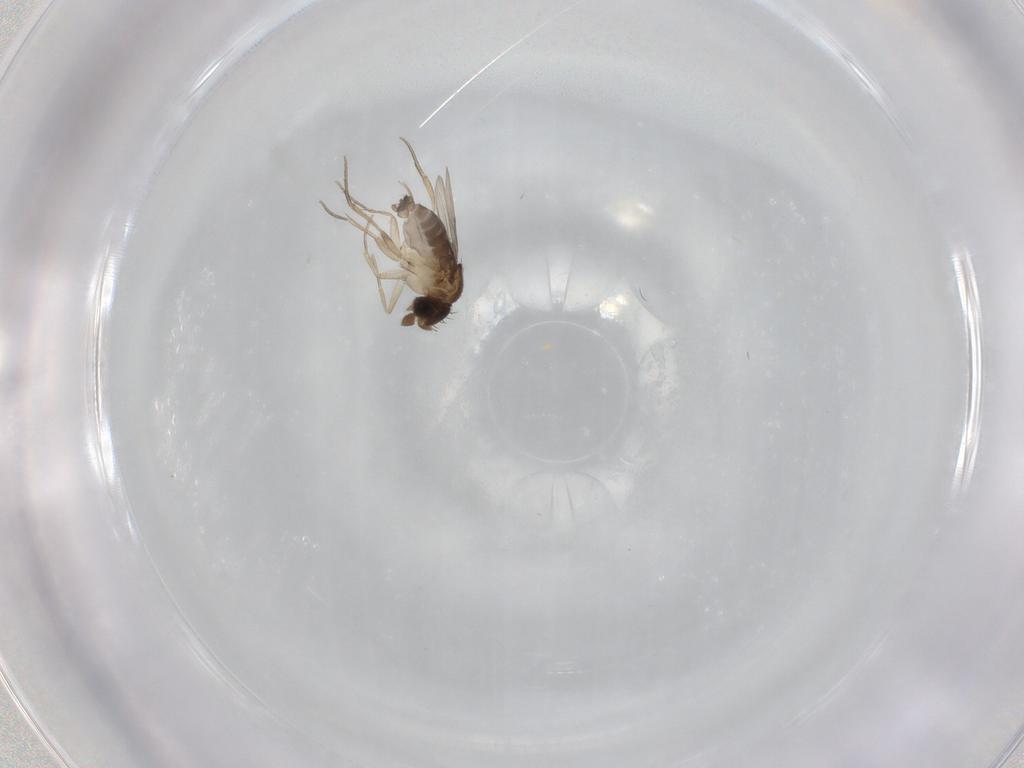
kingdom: Animalia
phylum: Arthropoda
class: Insecta
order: Diptera
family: Phoridae
